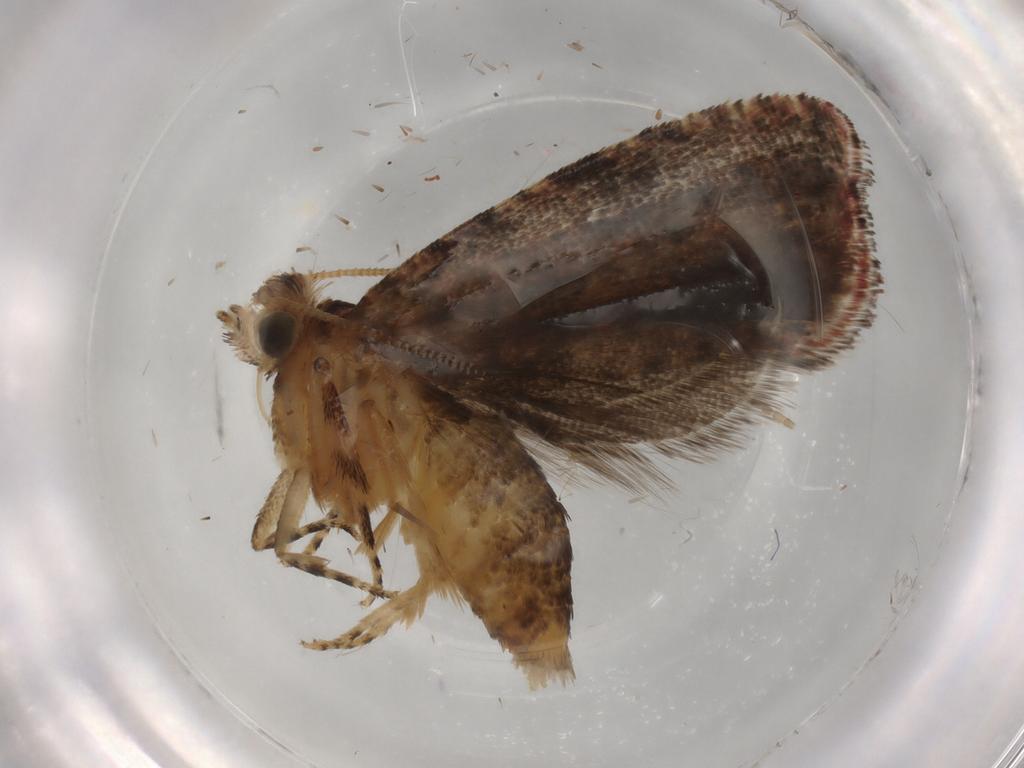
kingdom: Animalia
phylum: Arthropoda
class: Insecta
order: Lepidoptera
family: Tortricidae
